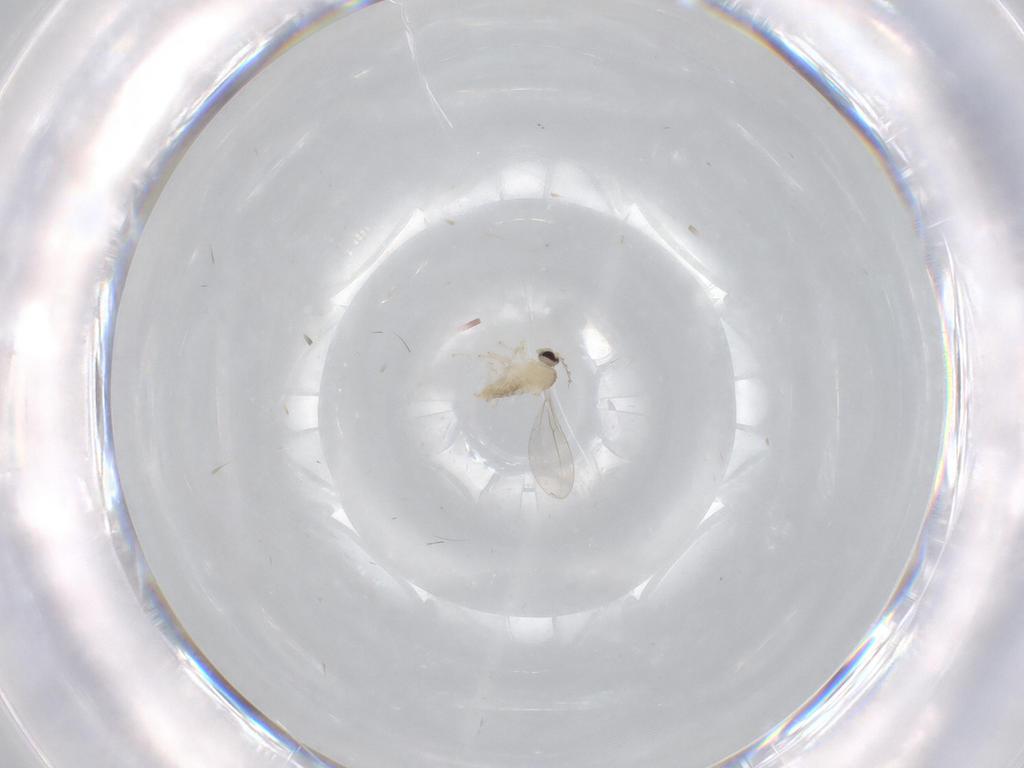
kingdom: Animalia
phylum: Arthropoda
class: Insecta
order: Diptera
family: Cecidomyiidae
